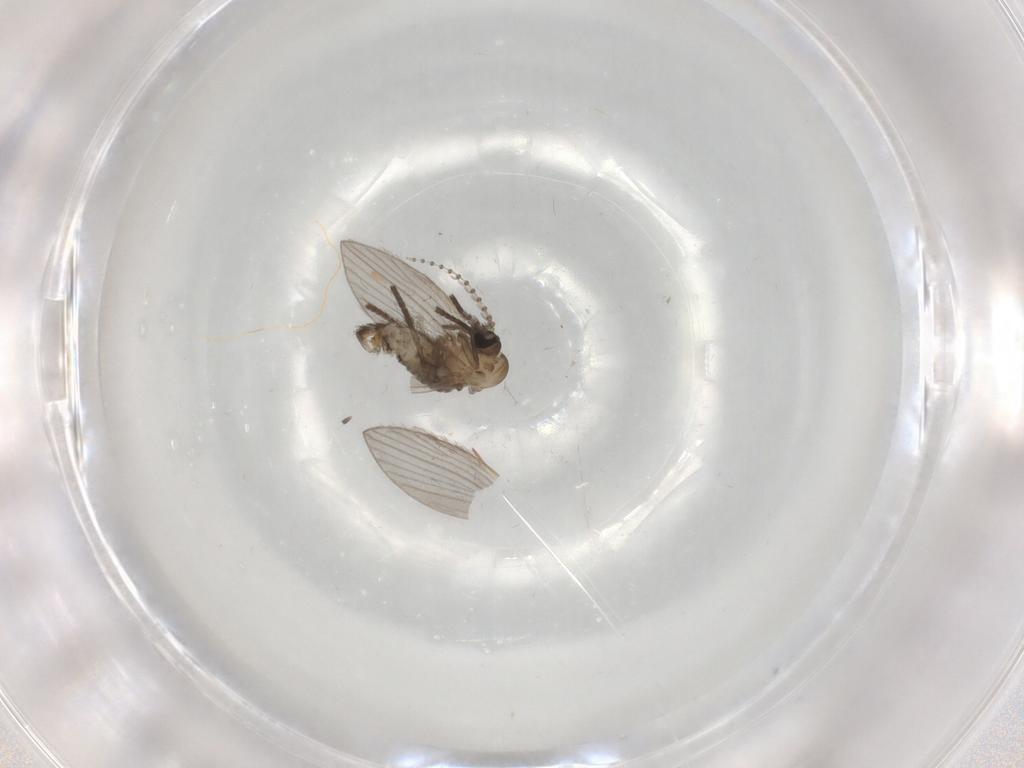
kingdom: Animalia
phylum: Arthropoda
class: Insecta
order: Diptera
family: Psychodidae
